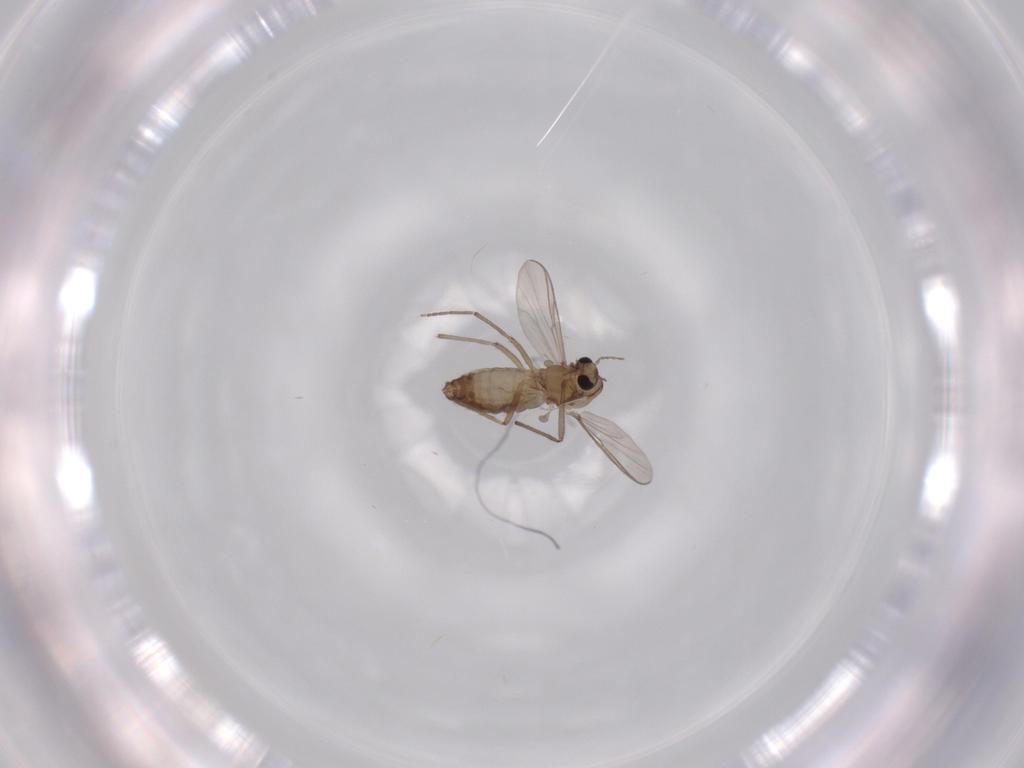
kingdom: Animalia
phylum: Arthropoda
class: Insecta
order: Diptera
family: Chironomidae
